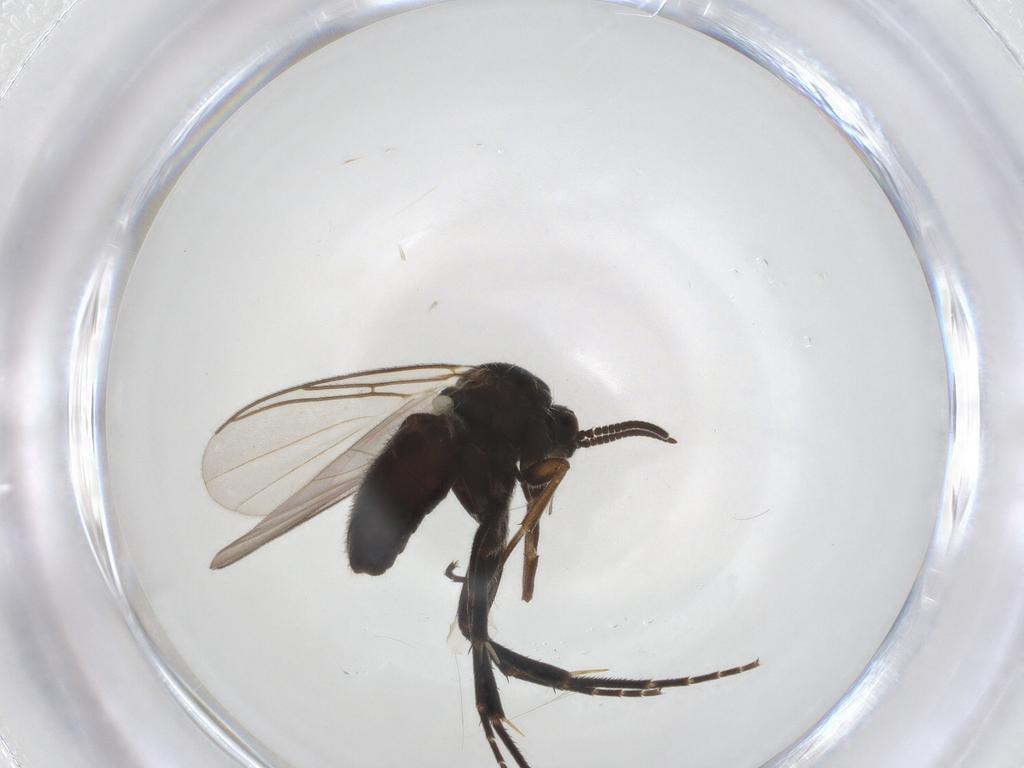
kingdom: Animalia
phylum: Arthropoda
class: Insecta
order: Diptera
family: Mycetophilidae
